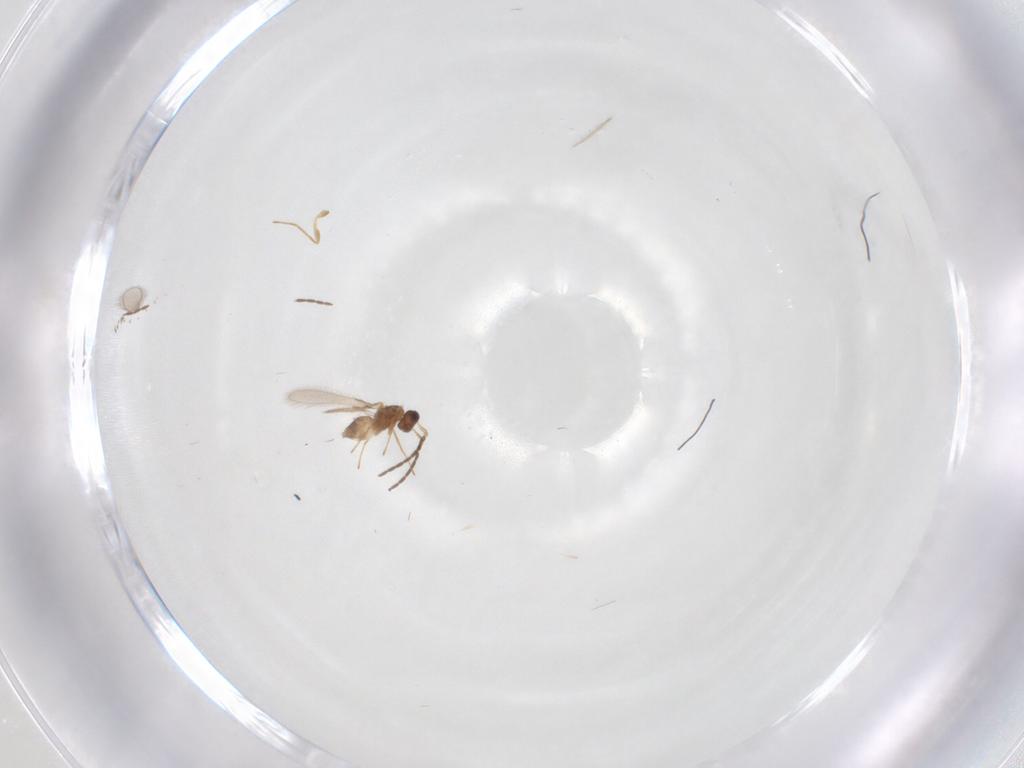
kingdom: Animalia
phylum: Arthropoda
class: Insecta
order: Hymenoptera
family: Mymaridae
